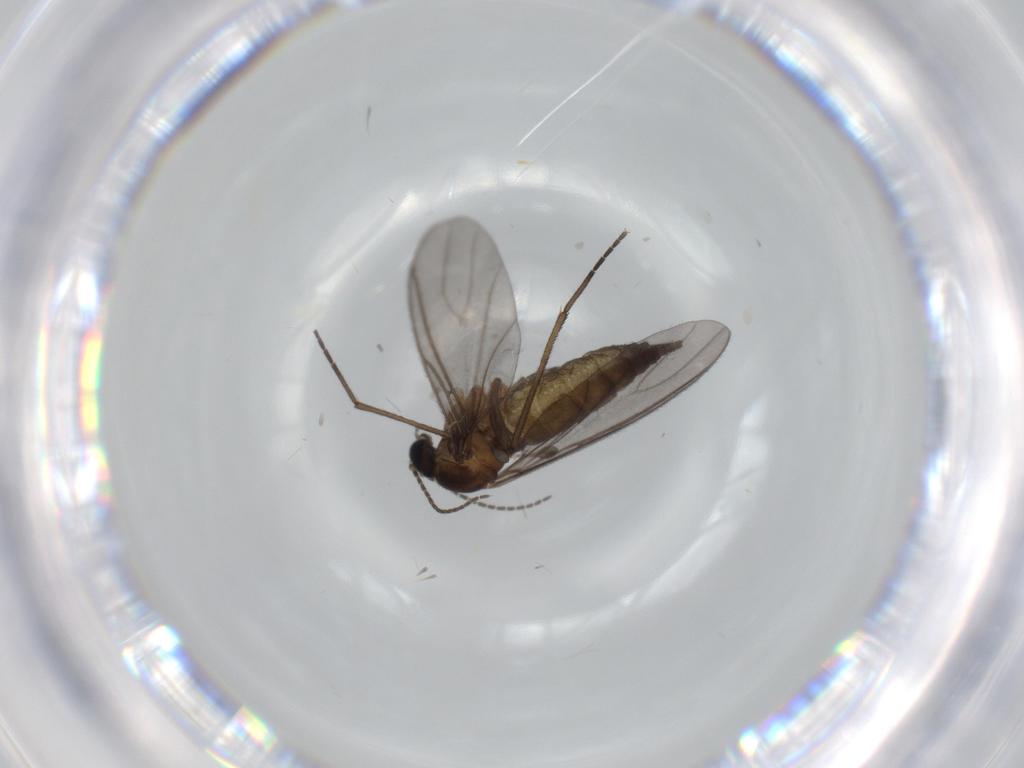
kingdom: Animalia
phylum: Arthropoda
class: Insecta
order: Diptera
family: Sciaridae
